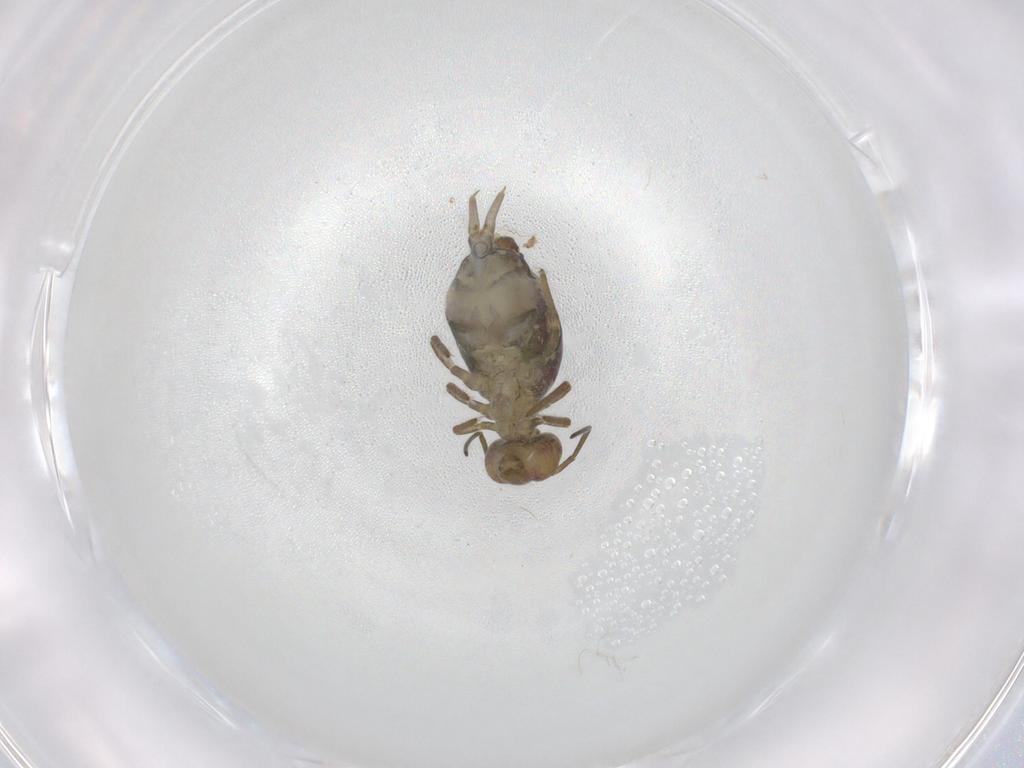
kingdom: Animalia
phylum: Arthropoda
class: Collembola
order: Symphypleona
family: Sminthuridae
